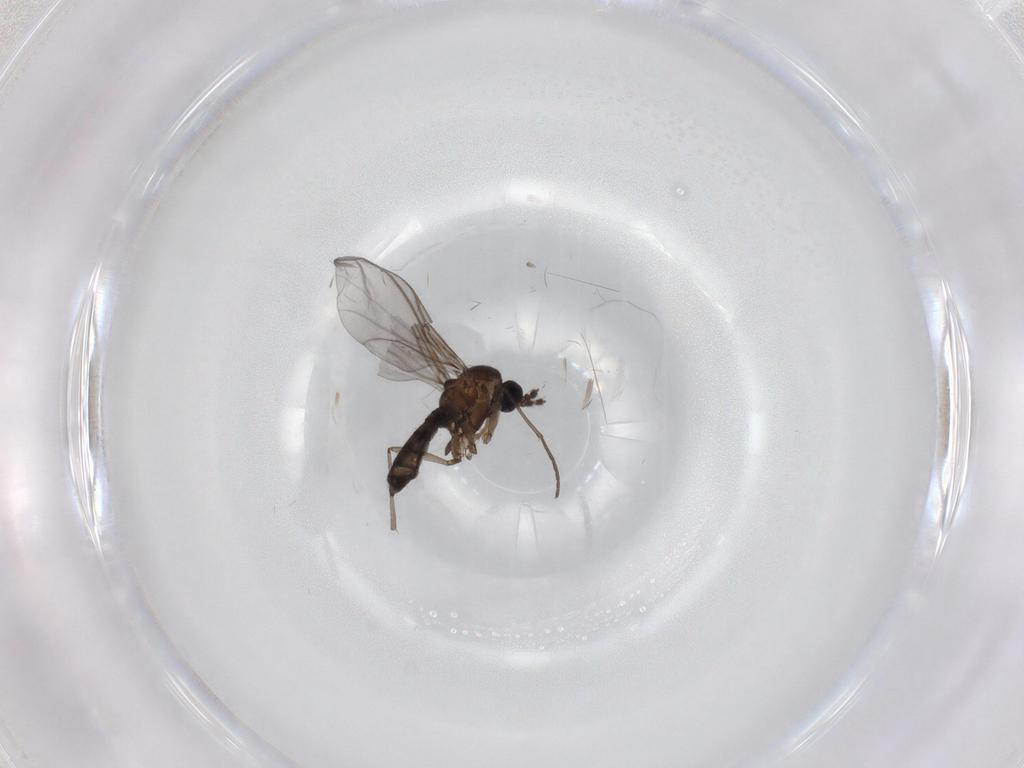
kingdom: Animalia
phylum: Arthropoda
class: Insecta
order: Diptera
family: Sciaridae
